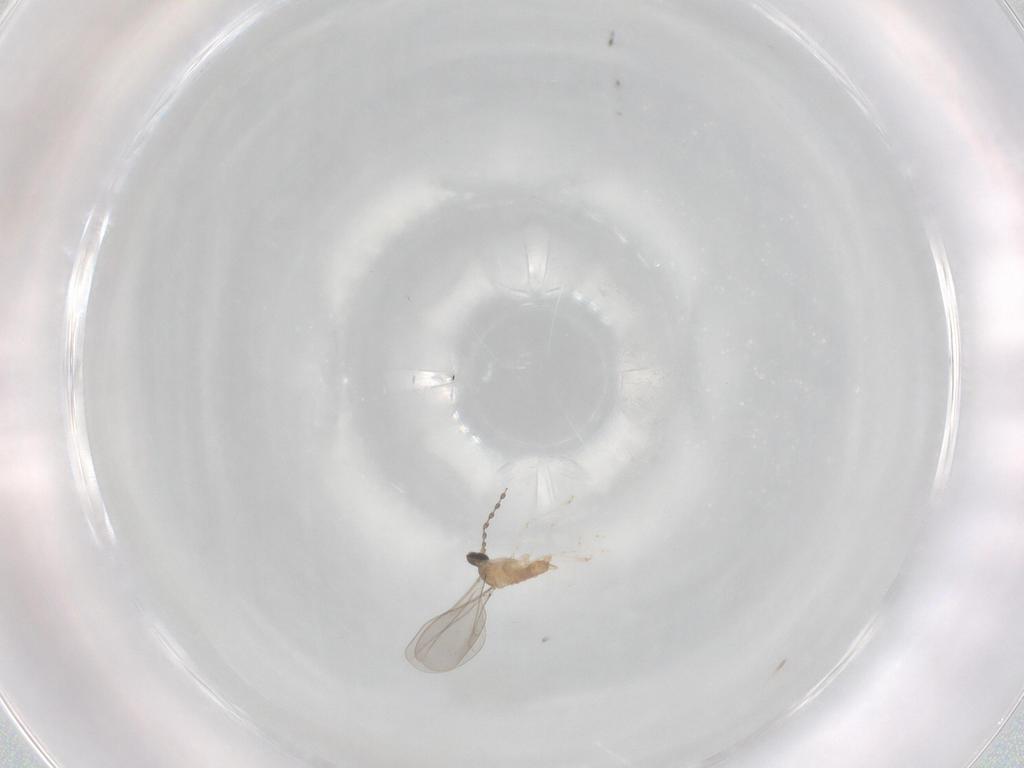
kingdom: Animalia
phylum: Arthropoda
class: Insecta
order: Diptera
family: Cecidomyiidae
